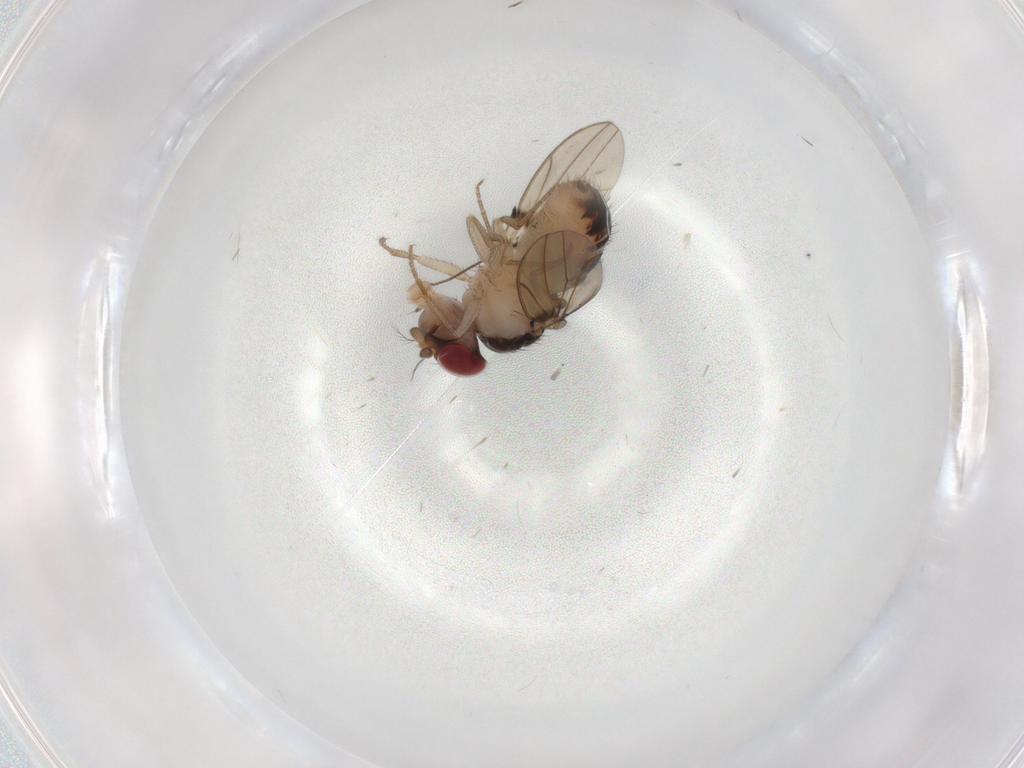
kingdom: Animalia
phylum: Arthropoda
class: Insecta
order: Diptera
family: Drosophilidae
